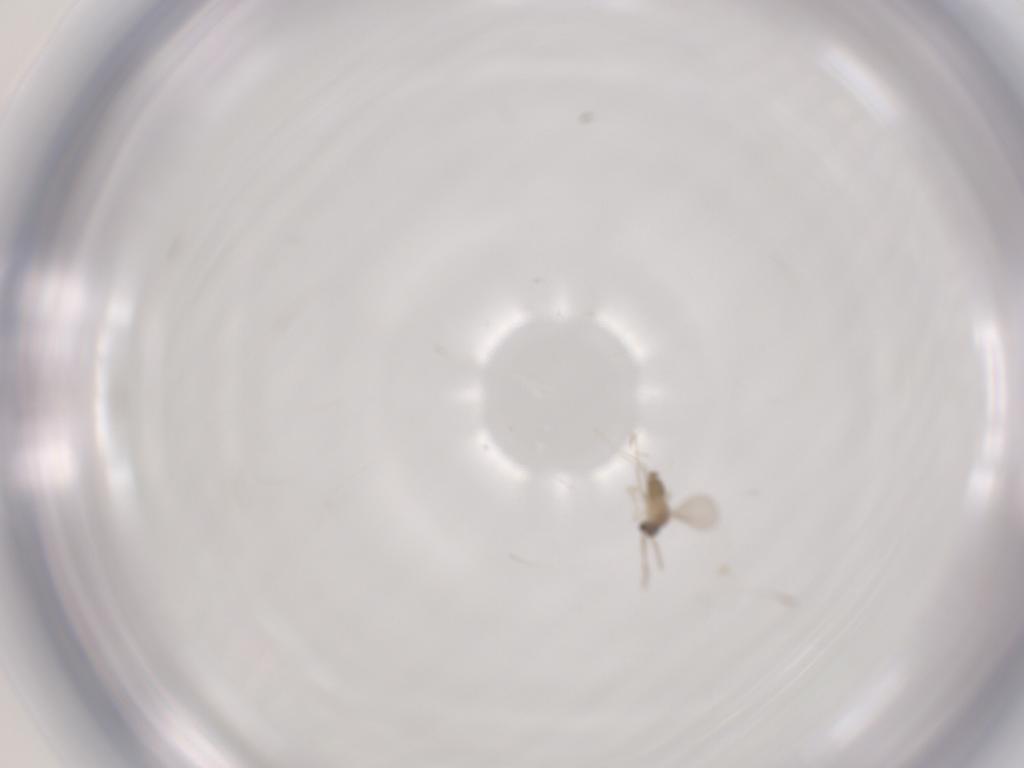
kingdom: Animalia
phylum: Arthropoda
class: Insecta
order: Diptera
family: Cecidomyiidae
